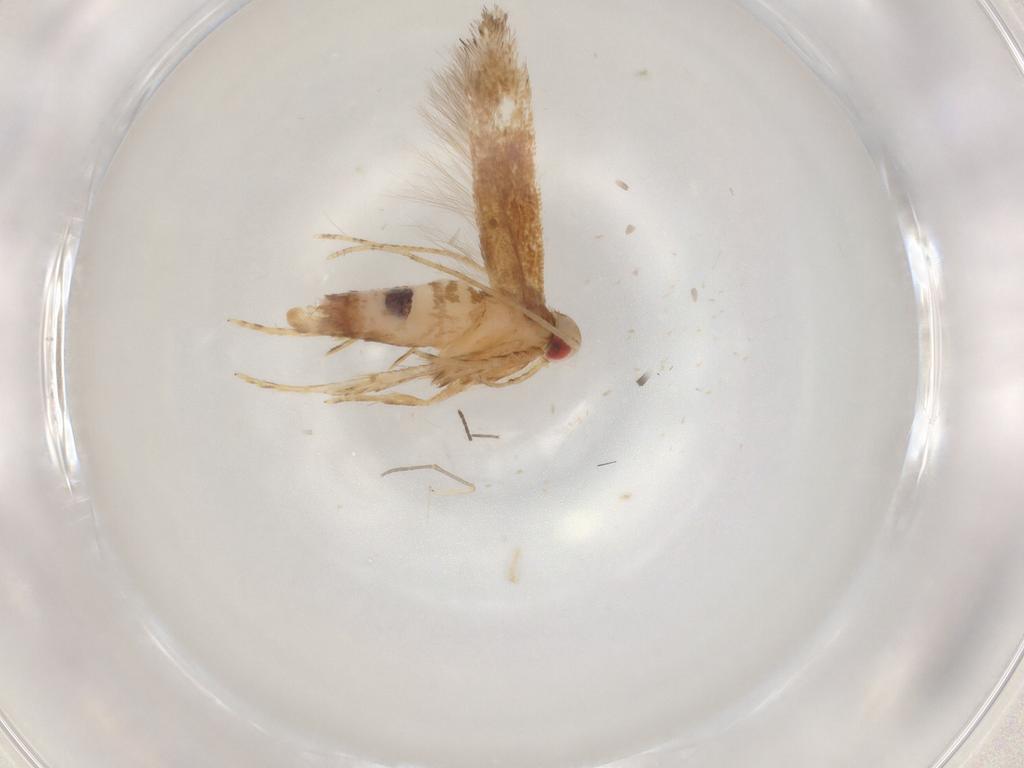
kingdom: Animalia
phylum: Arthropoda
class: Insecta
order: Lepidoptera
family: Cosmopterigidae
